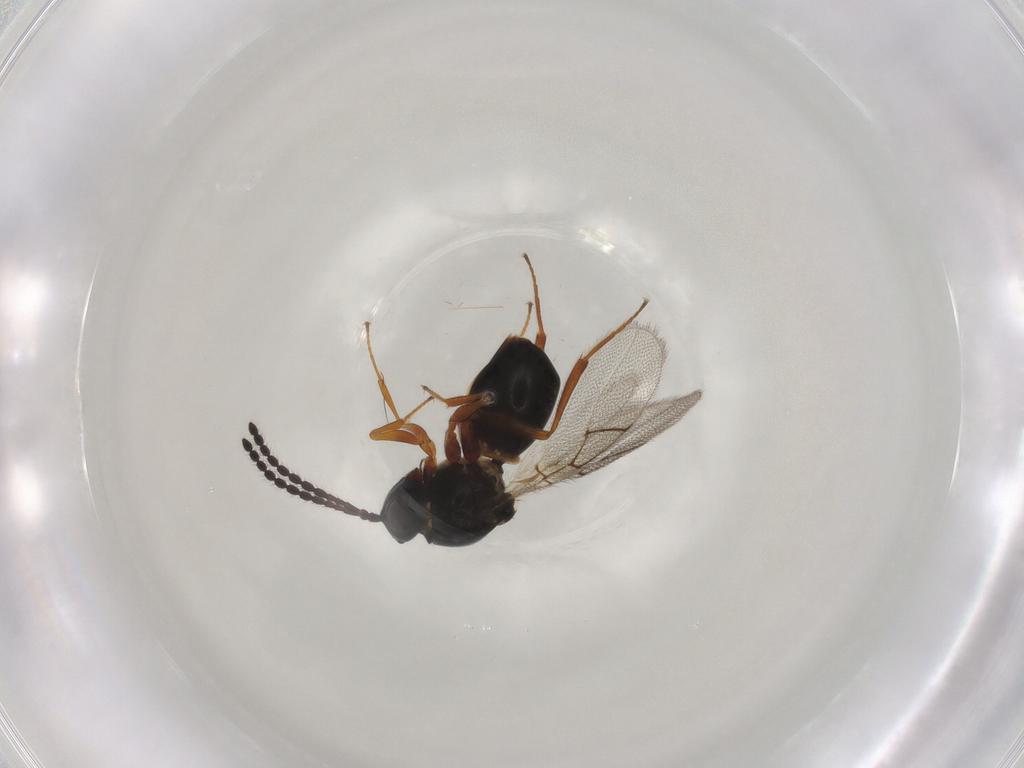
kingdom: Animalia
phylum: Arthropoda
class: Insecta
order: Hymenoptera
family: Figitidae
